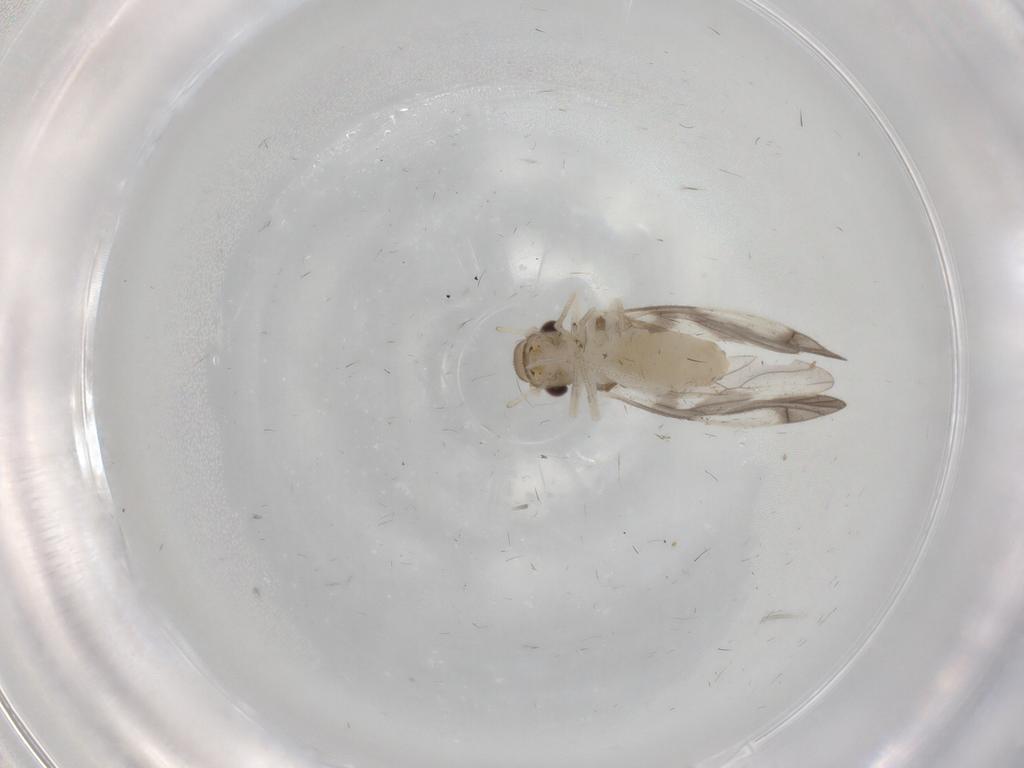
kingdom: Animalia
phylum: Arthropoda
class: Insecta
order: Psocodea
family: Caeciliusidae
